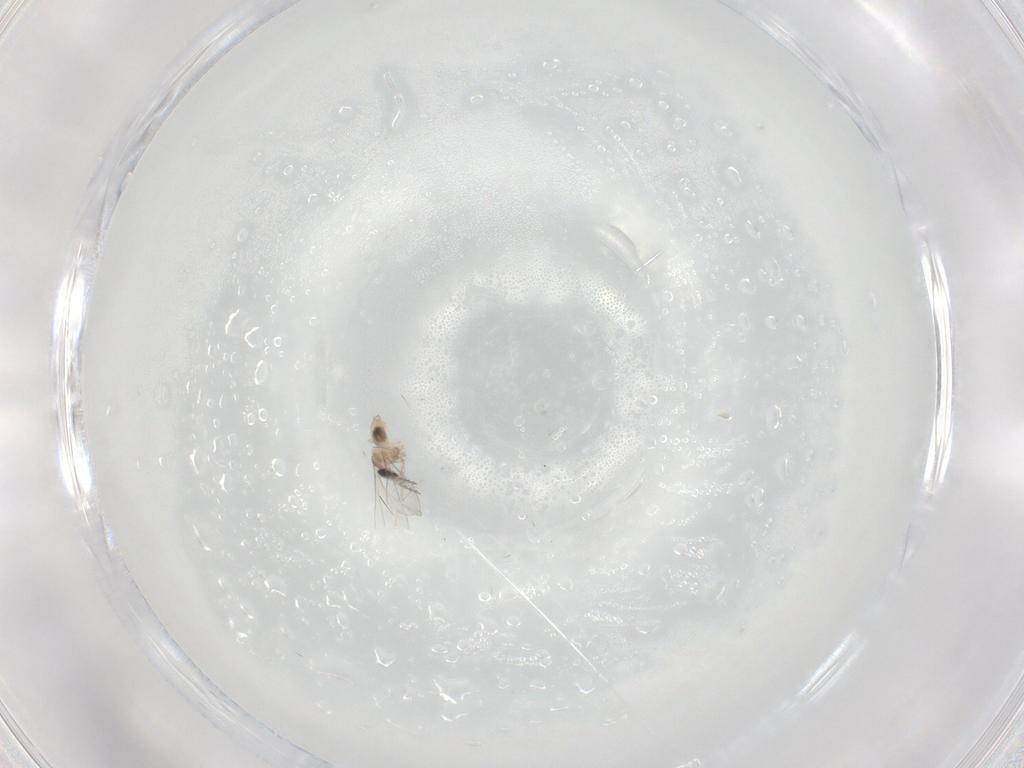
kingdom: Animalia
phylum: Arthropoda
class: Insecta
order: Diptera
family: Cecidomyiidae
